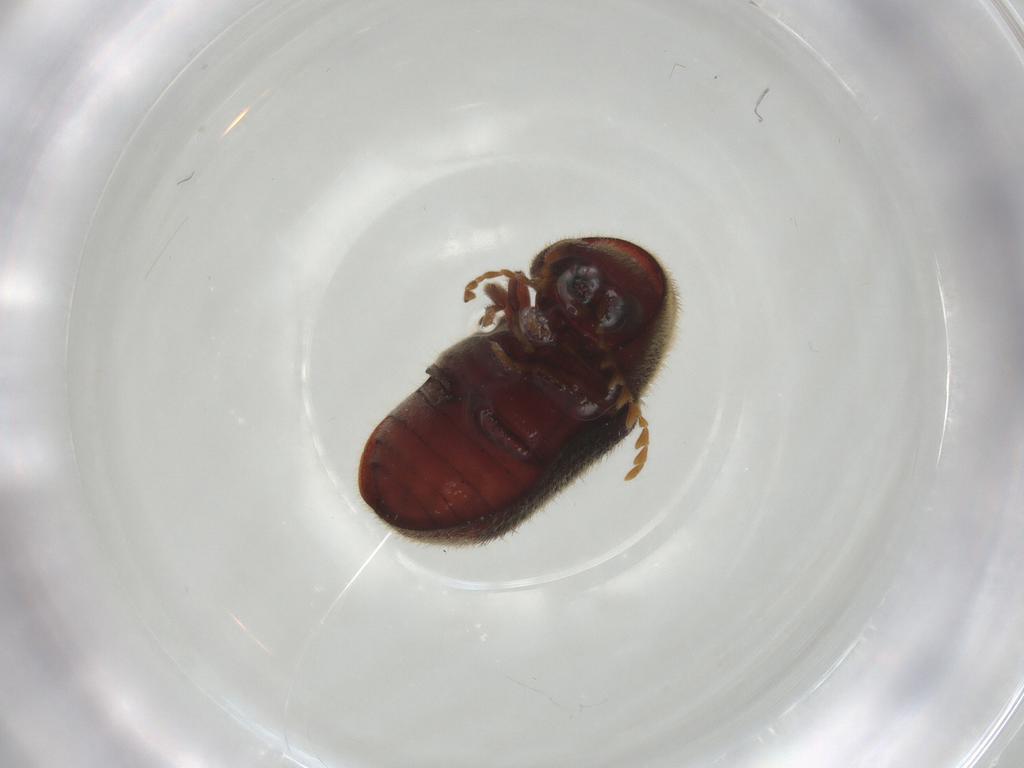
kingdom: Animalia
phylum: Arthropoda
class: Insecta
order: Coleoptera
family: Ptinidae
